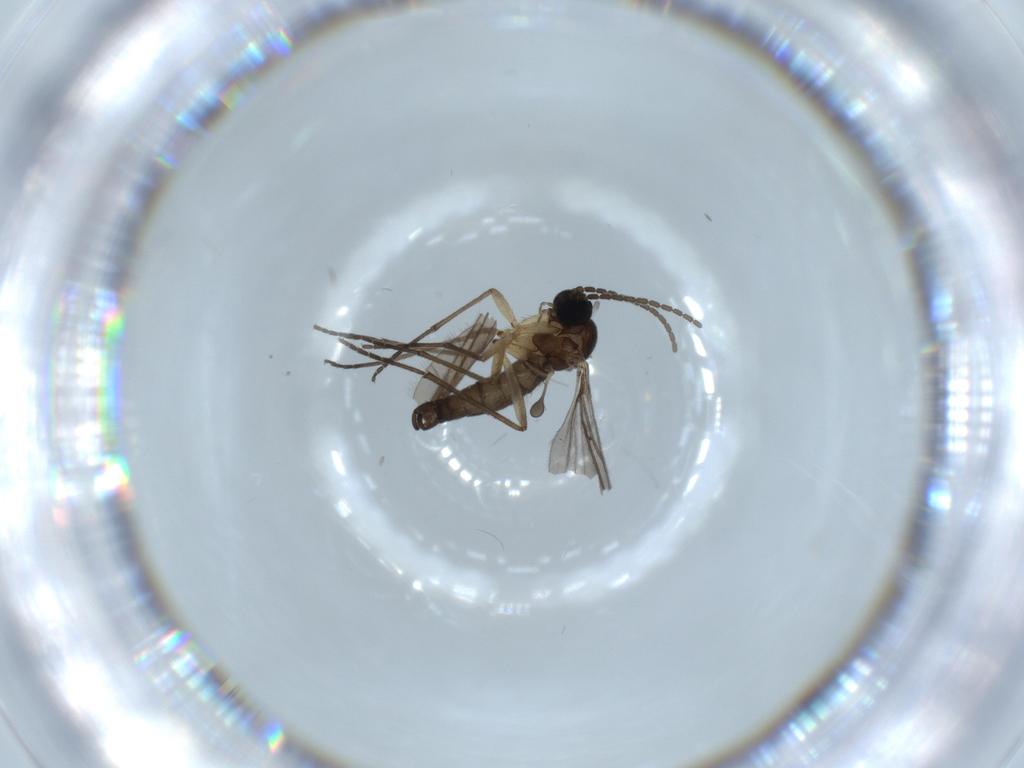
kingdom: Animalia
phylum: Arthropoda
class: Insecta
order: Diptera
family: Sciaridae
